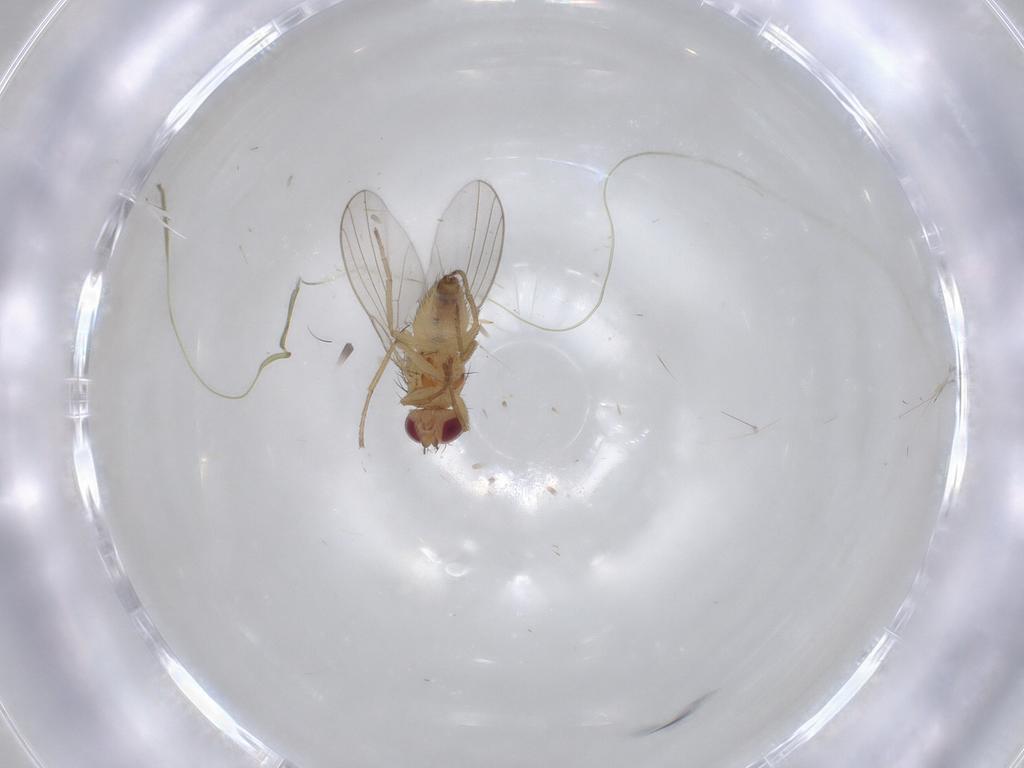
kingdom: Animalia
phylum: Arthropoda
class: Insecta
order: Diptera
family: Agromyzidae
